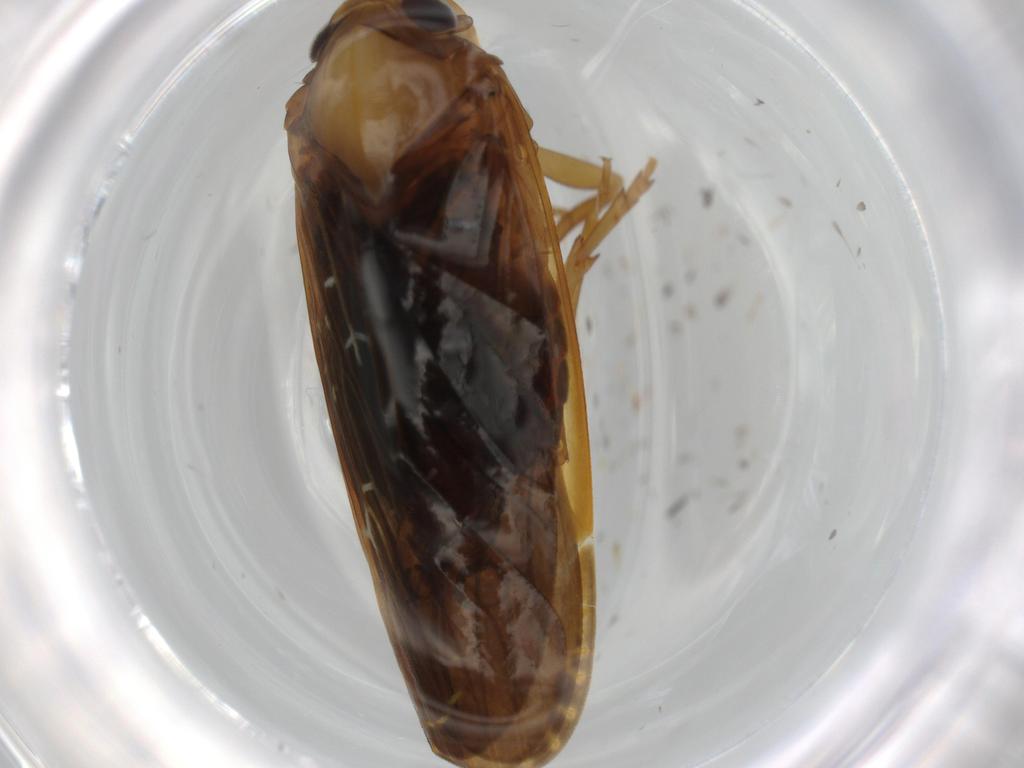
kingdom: Animalia
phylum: Arthropoda
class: Insecta
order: Hemiptera
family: Achilidae
